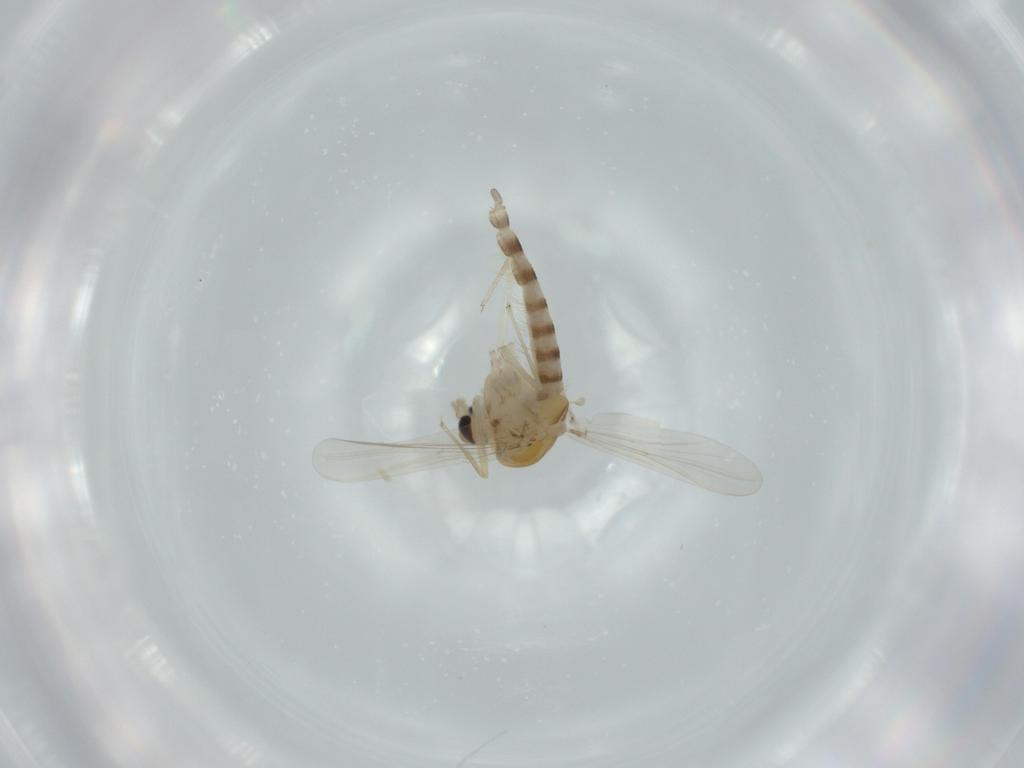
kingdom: Animalia
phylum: Arthropoda
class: Insecta
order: Diptera
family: Chironomidae
